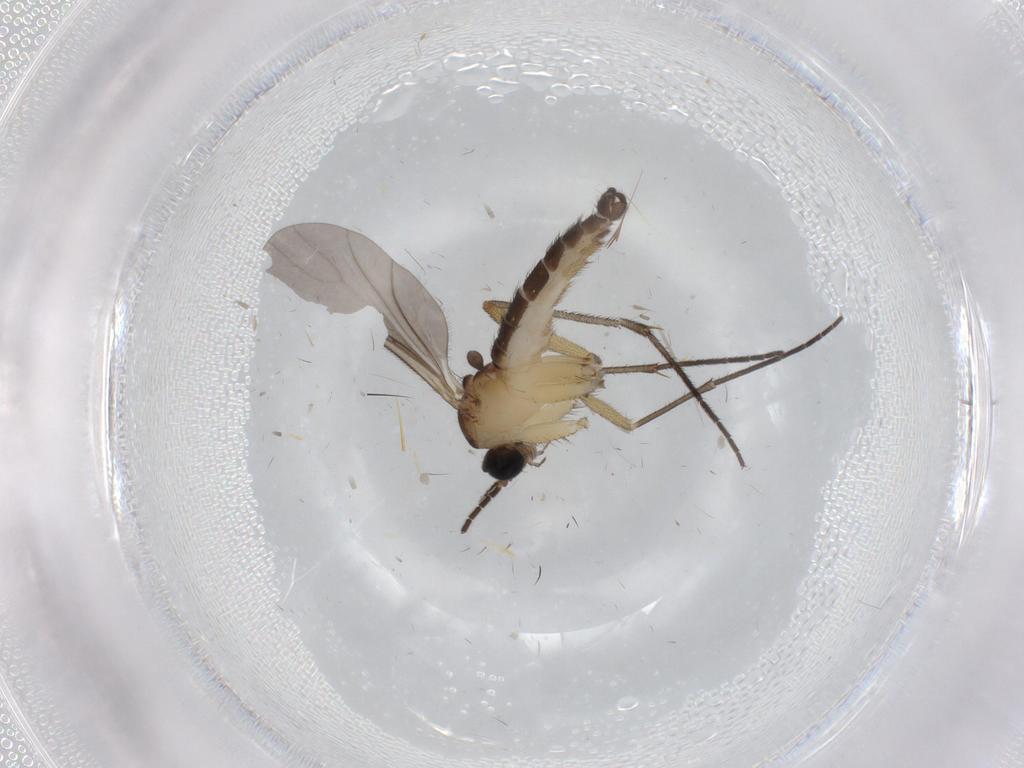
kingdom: Animalia
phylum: Arthropoda
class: Insecta
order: Diptera
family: Sciaridae
